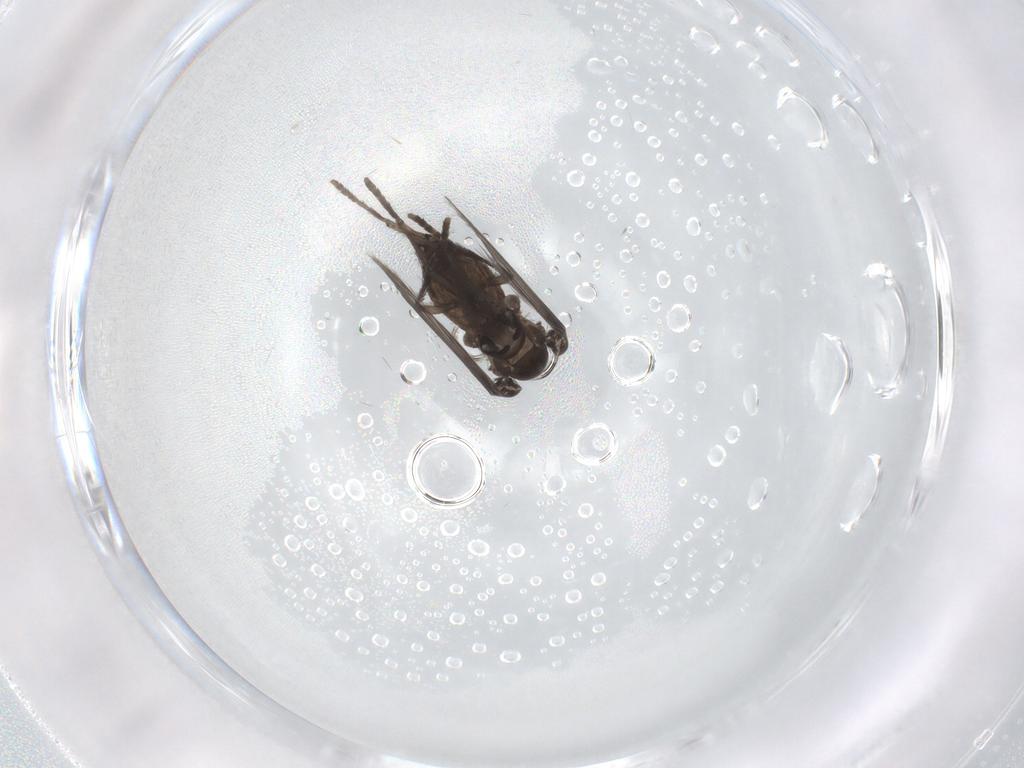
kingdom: Animalia
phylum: Arthropoda
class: Insecta
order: Diptera
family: Psychodidae
